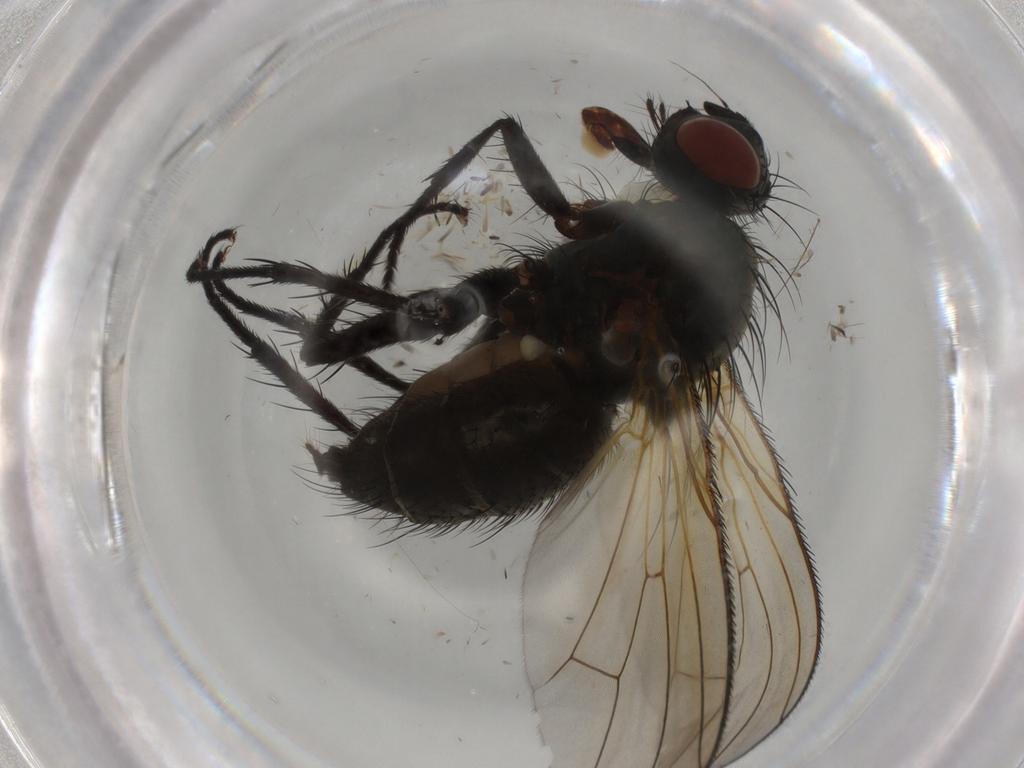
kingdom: Animalia
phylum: Arthropoda
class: Insecta
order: Diptera
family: Anthomyiidae
